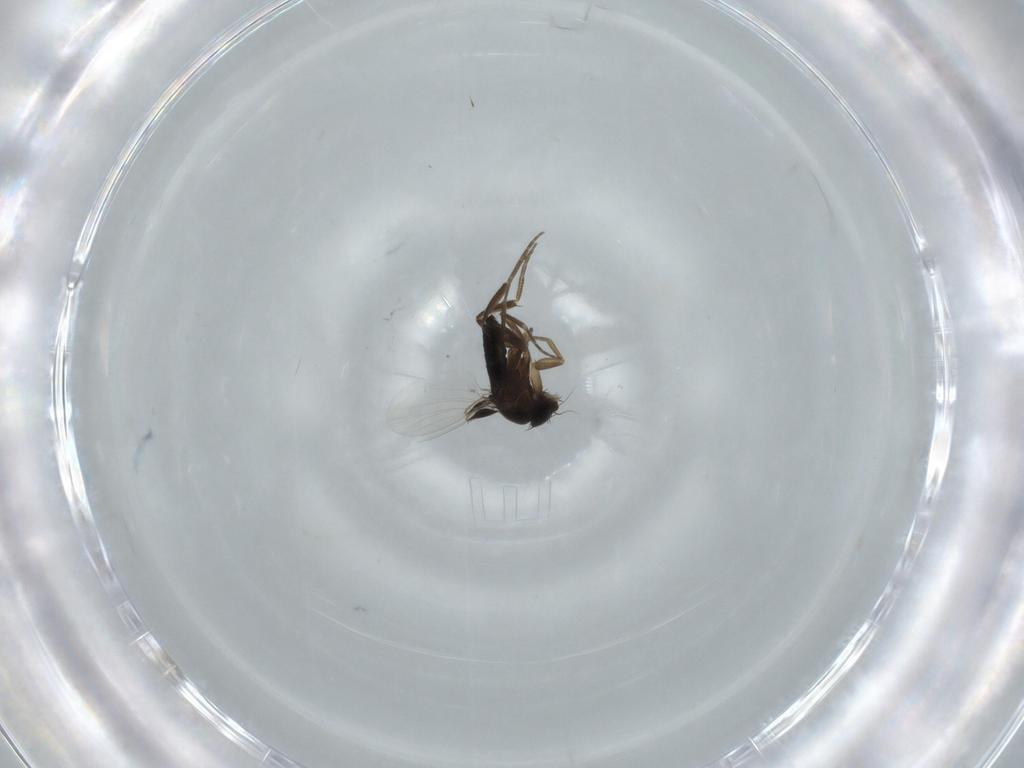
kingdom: Animalia
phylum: Arthropoda
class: Insecta
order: Diptera
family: Phoridae
